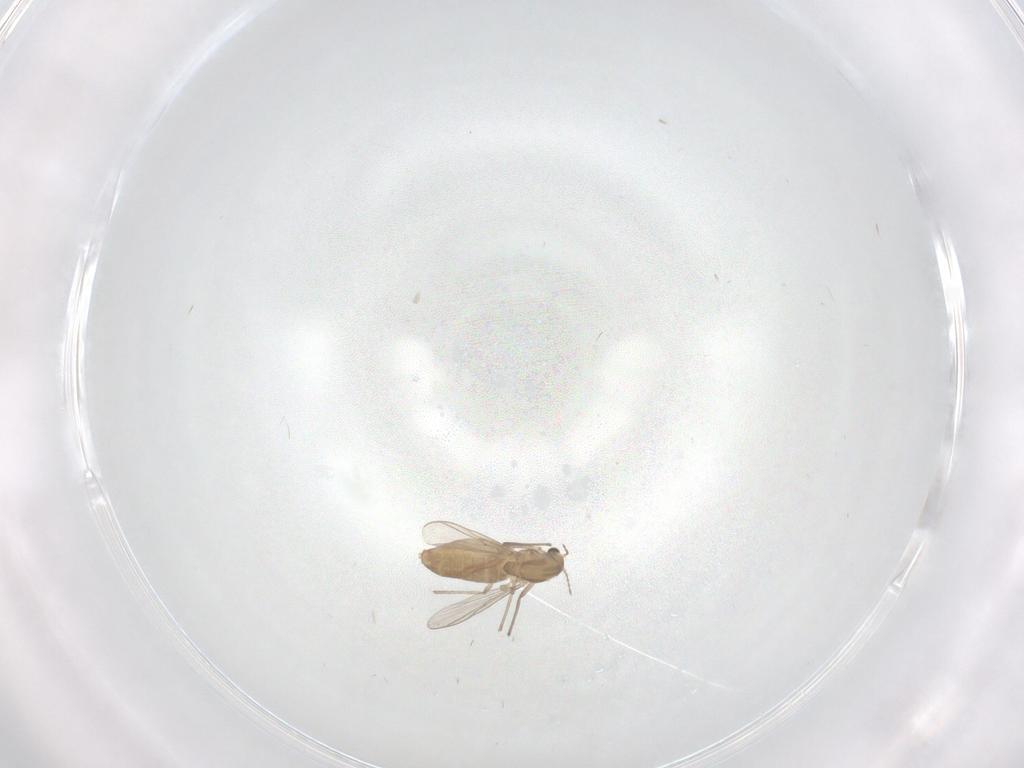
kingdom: Animalia
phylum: Arthropoda
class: Insecta
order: Diptera
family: Chironomidae
